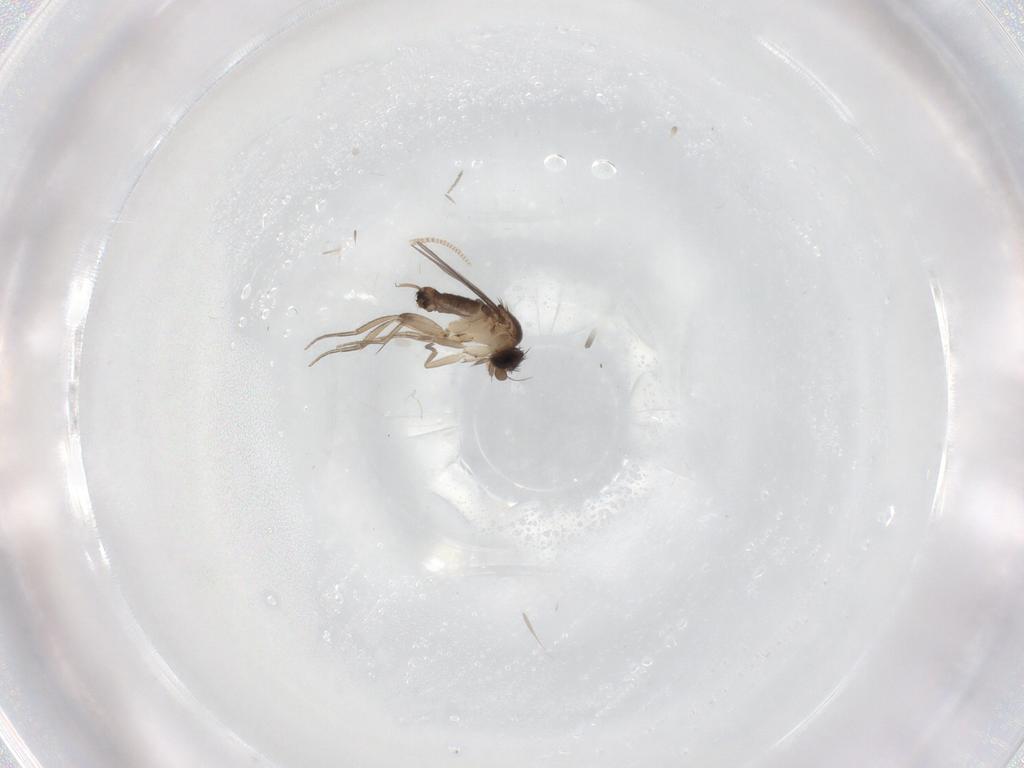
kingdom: Animalia
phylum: Arthropoda
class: Insecta
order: Diptera
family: Phoridae
